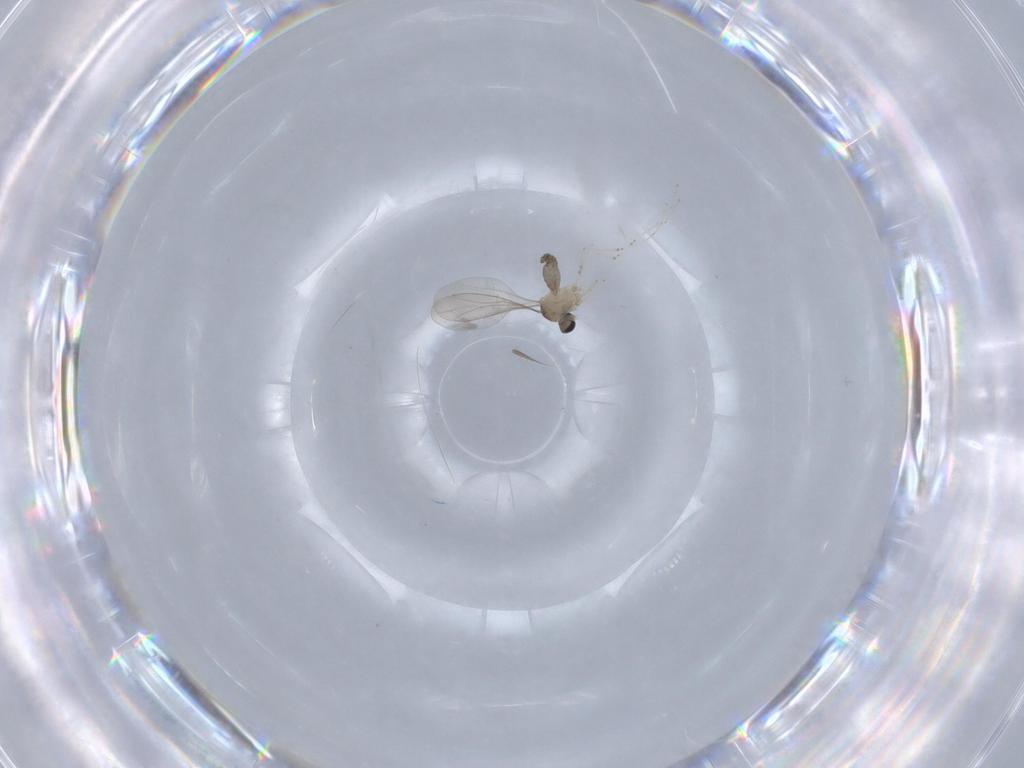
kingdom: Animalia
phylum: Arthropoda
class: Insecta
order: Diptera
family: Cecidomyiidae
